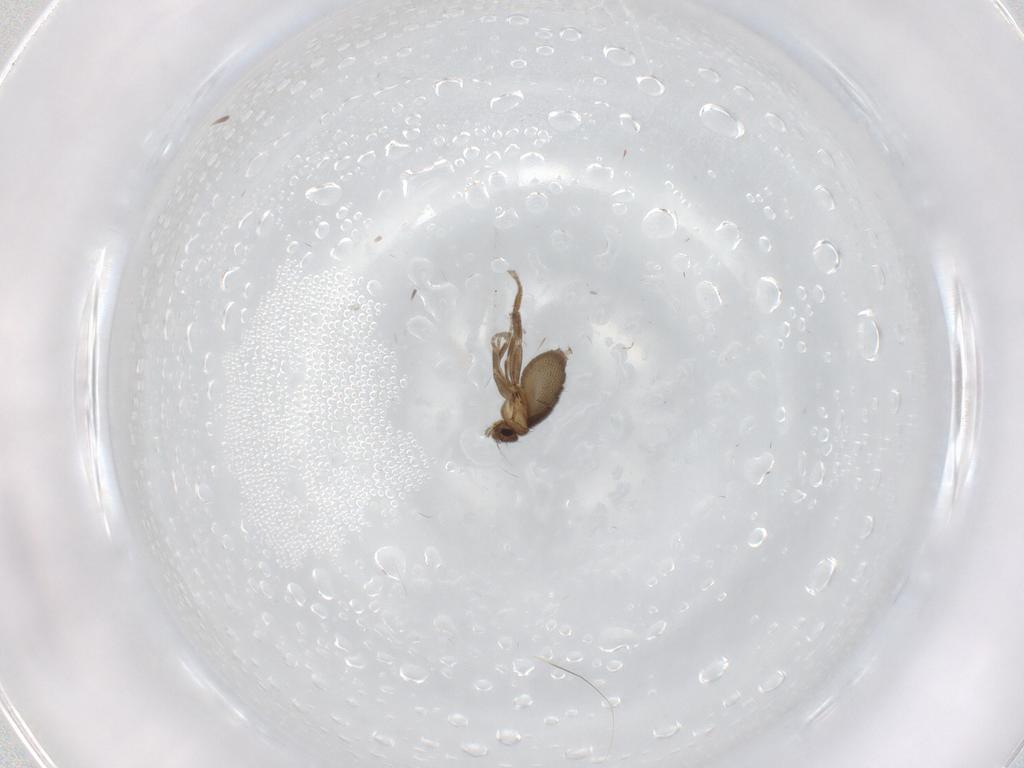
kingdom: Animalia
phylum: Arthropoda
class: Insecta
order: Diptera
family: Phoridae
